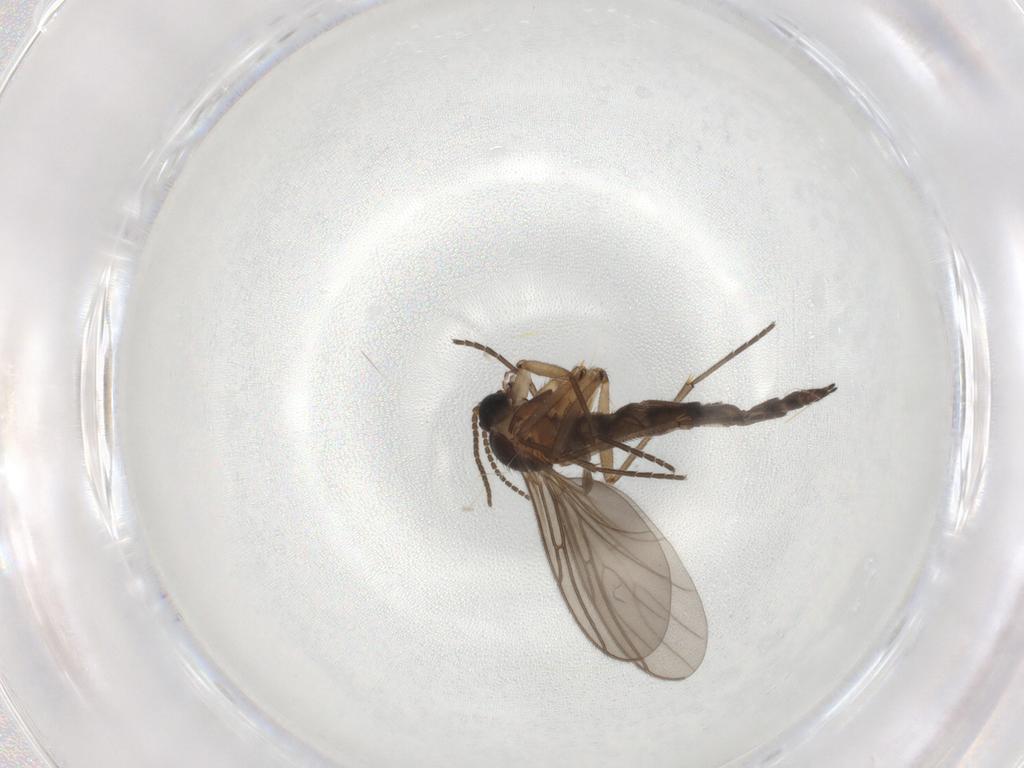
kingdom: Animalia
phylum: Arthropoda
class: Insecta
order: Diptera
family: Sciaridae
